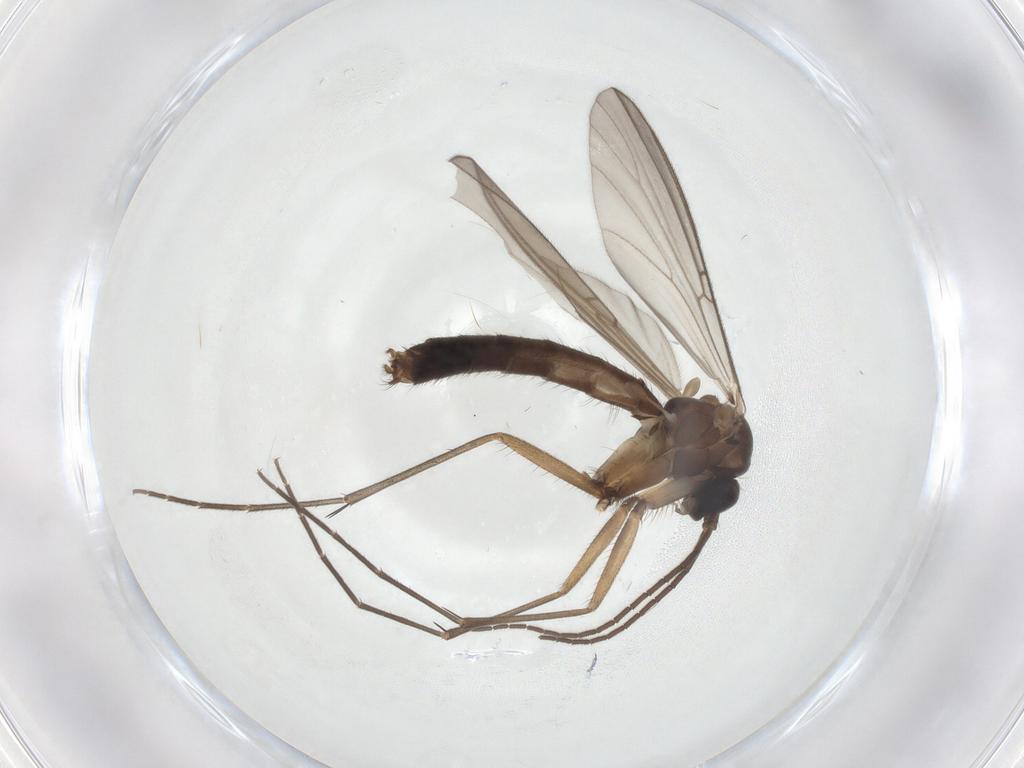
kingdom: Animalia
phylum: Arthropoda
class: Insecta
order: Diptera
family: Mycetophilidae
